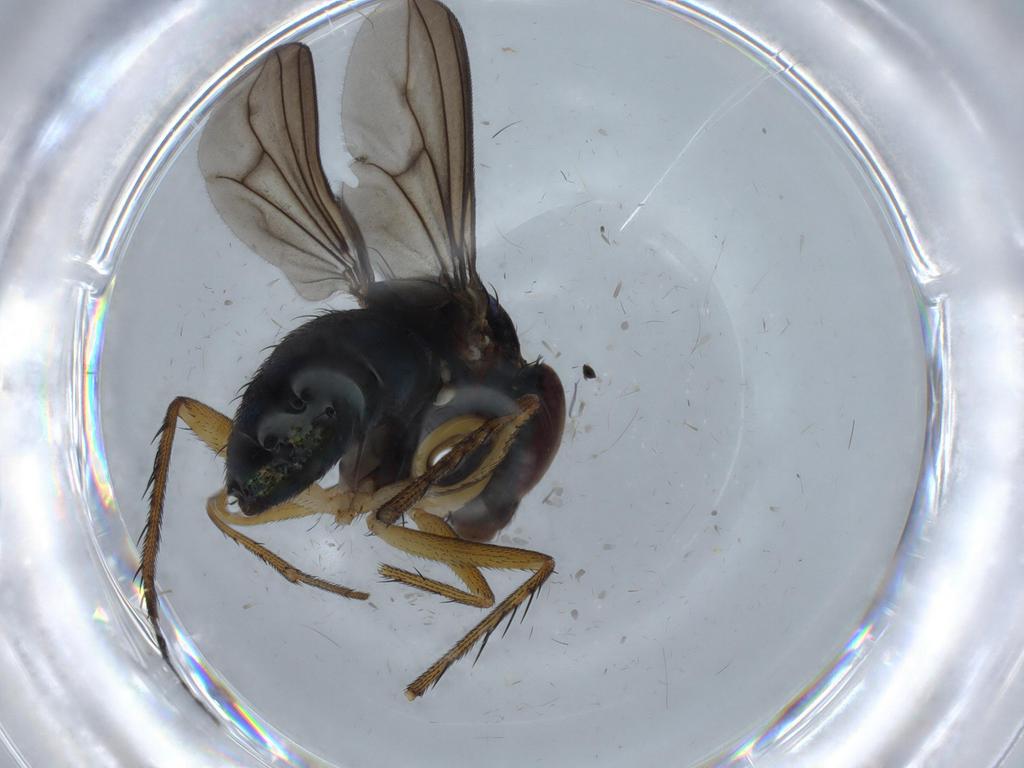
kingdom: Animalia
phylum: Arthropoda
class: Insecta
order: Diptera
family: Dolichopodidae
